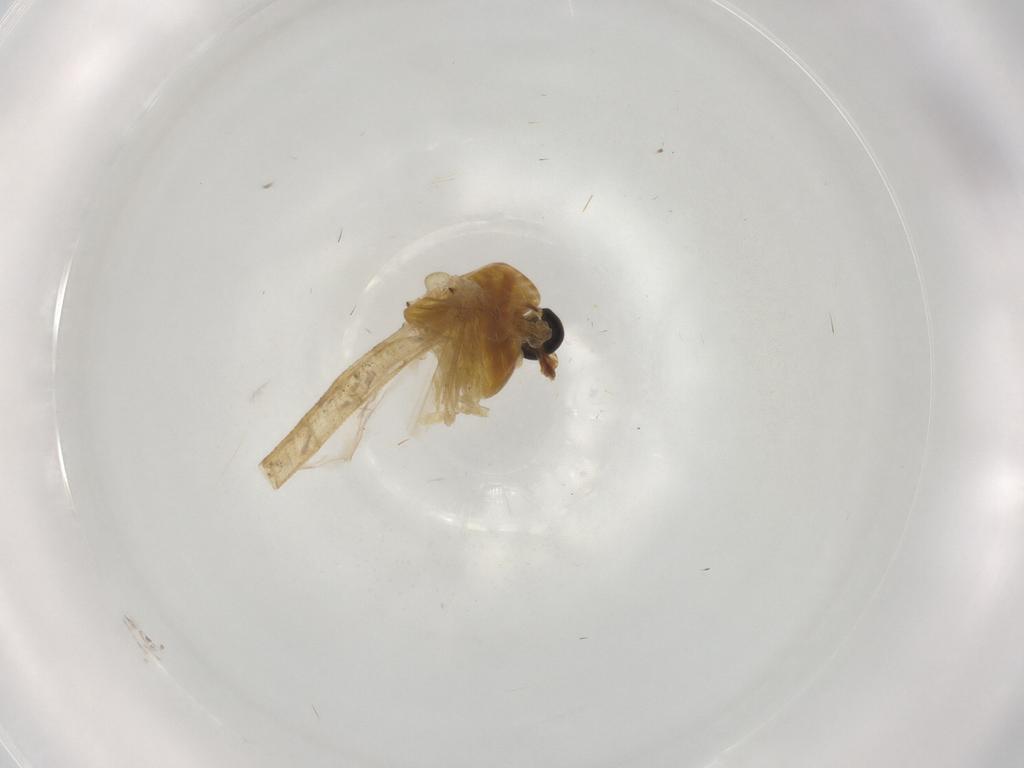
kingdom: Animalia
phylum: Arthropoda
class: Insecta
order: Diptera
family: Chironomidae
